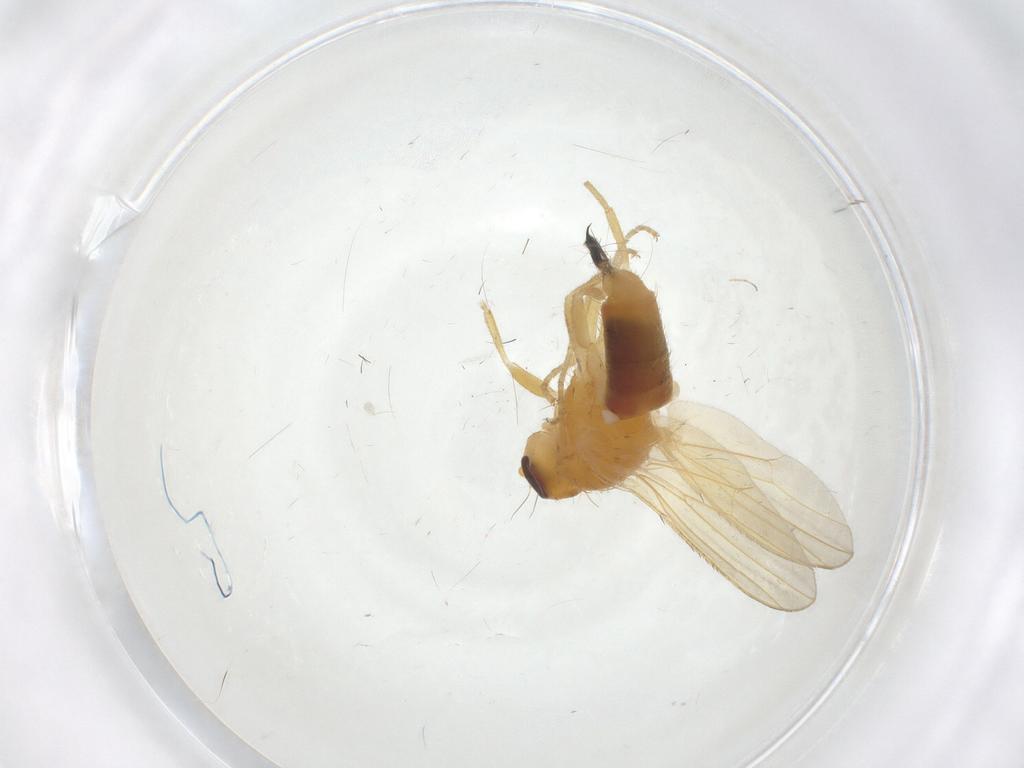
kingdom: Animalia
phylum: Arthropoda
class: Insecta
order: Diptera
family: Heleomyzidae
